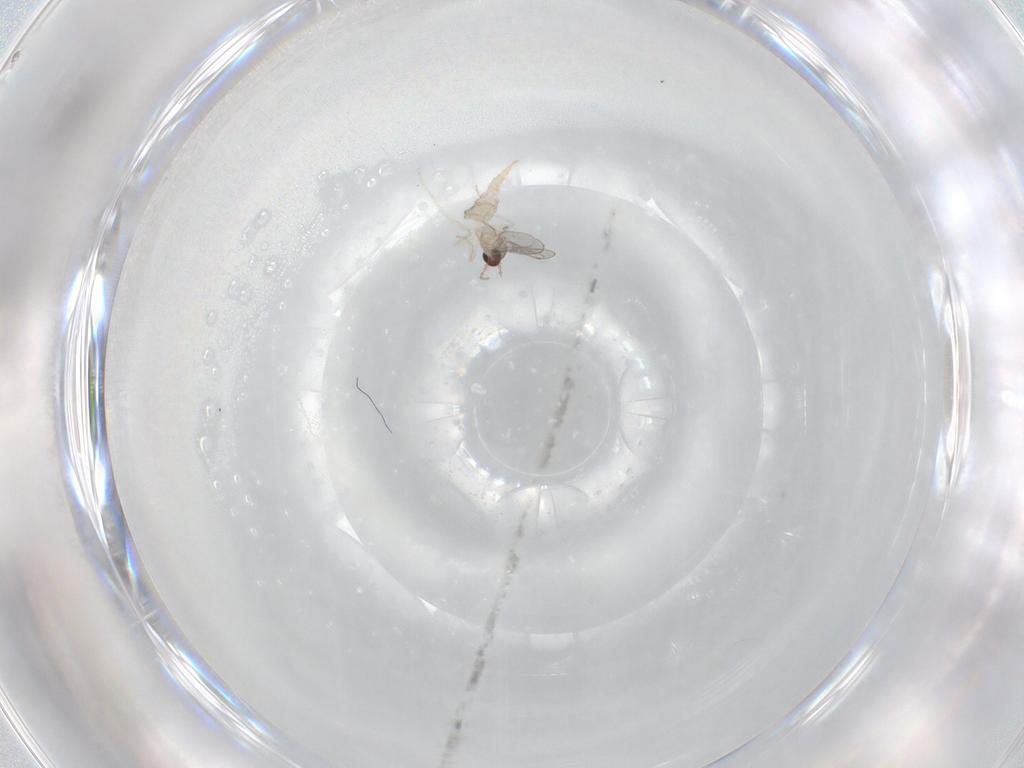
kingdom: Animalia
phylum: Arthropoda
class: Insecta
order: Diptera
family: Cecidomyiidae
